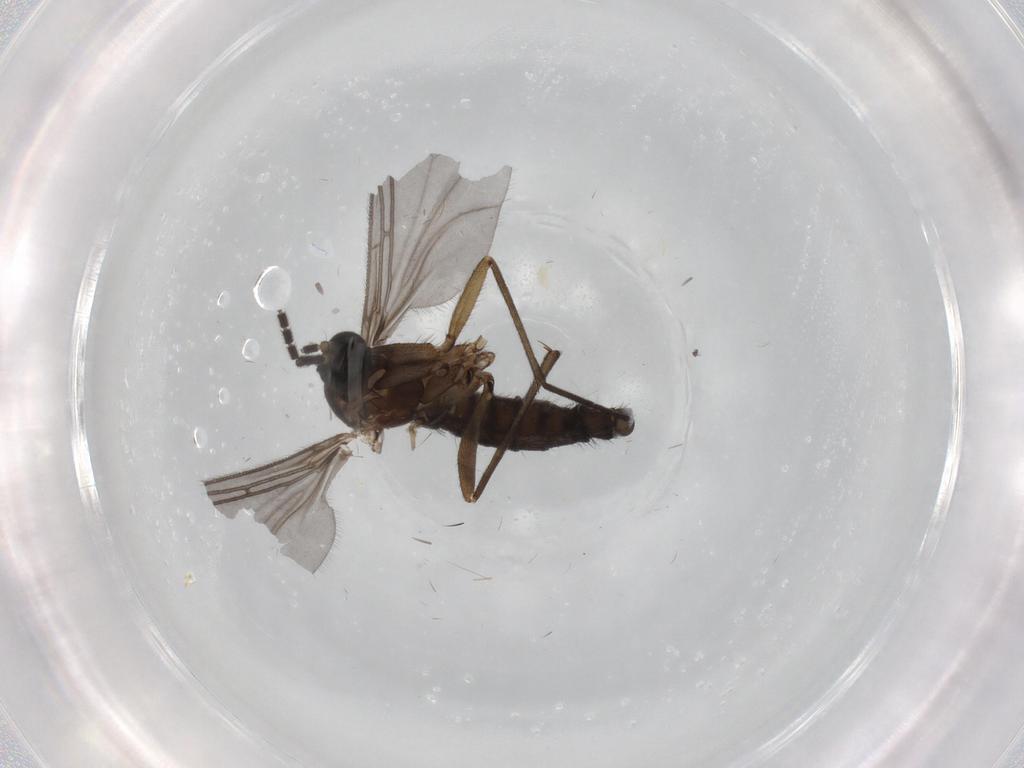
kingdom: Animalia
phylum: Arthropoda
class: Insecta
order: Diptera
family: Sciaridae
